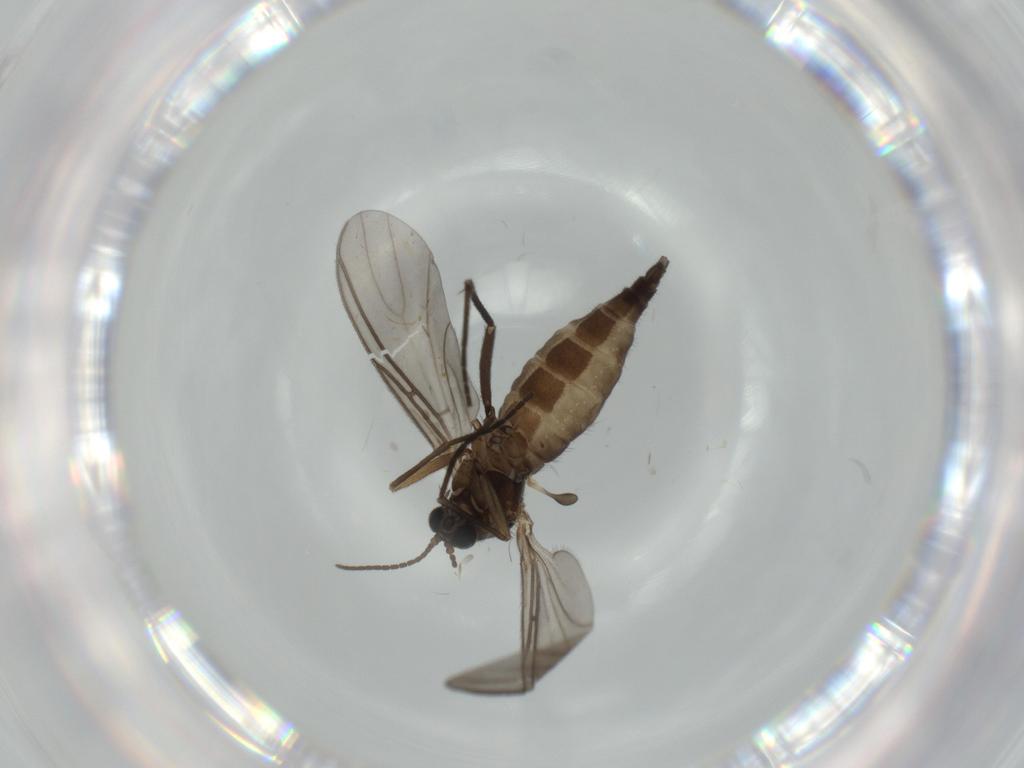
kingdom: Animalia
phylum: Arthropoda
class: Insecta
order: Diptera
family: Sciaridae
